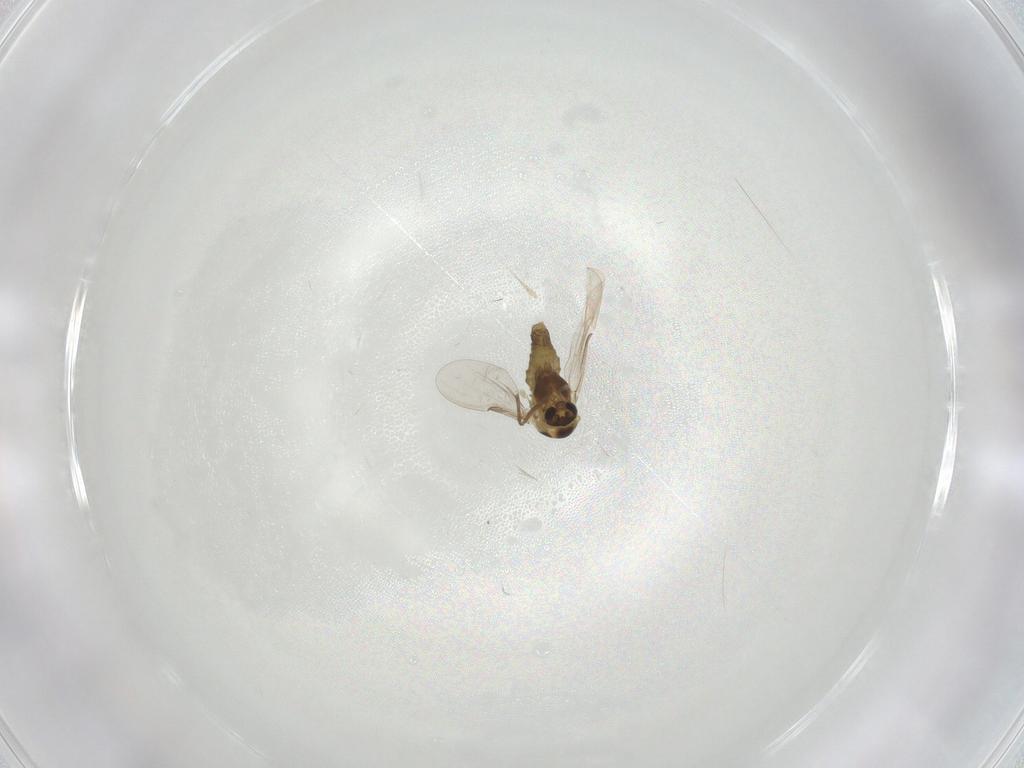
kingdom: Animalia
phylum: Arthropoda
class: Insecta
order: Diptera
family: Chironomidae
